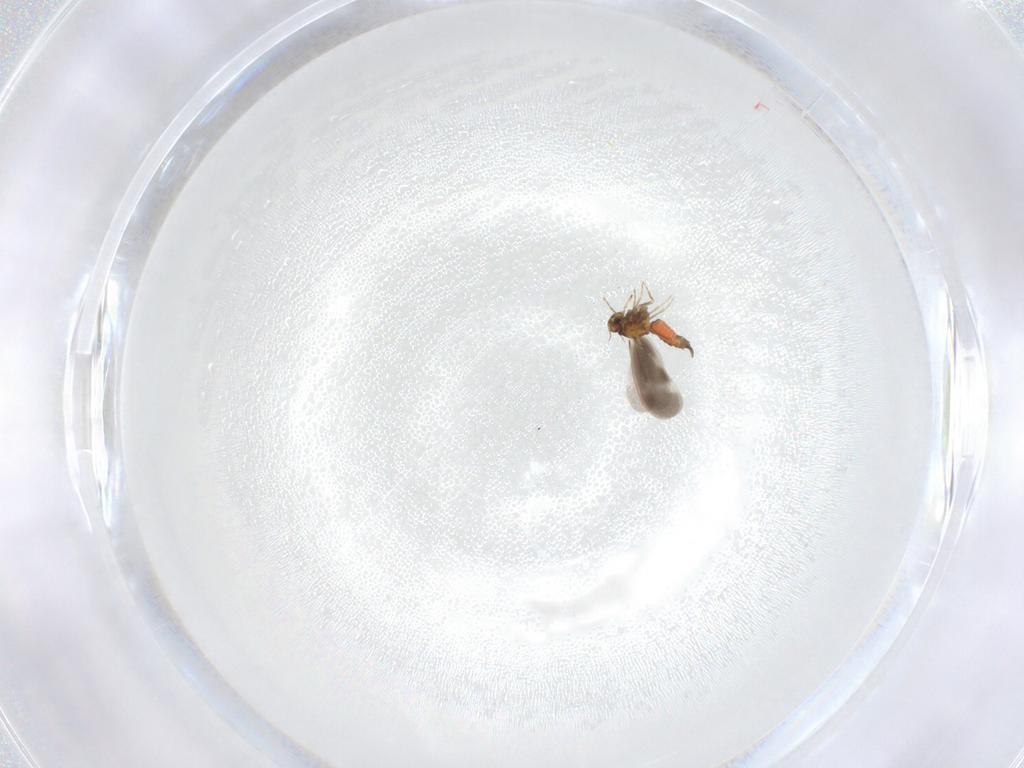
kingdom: Animalia
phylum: Arthropoda
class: Insecta
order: Hemiptera
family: Aleyrodidae
